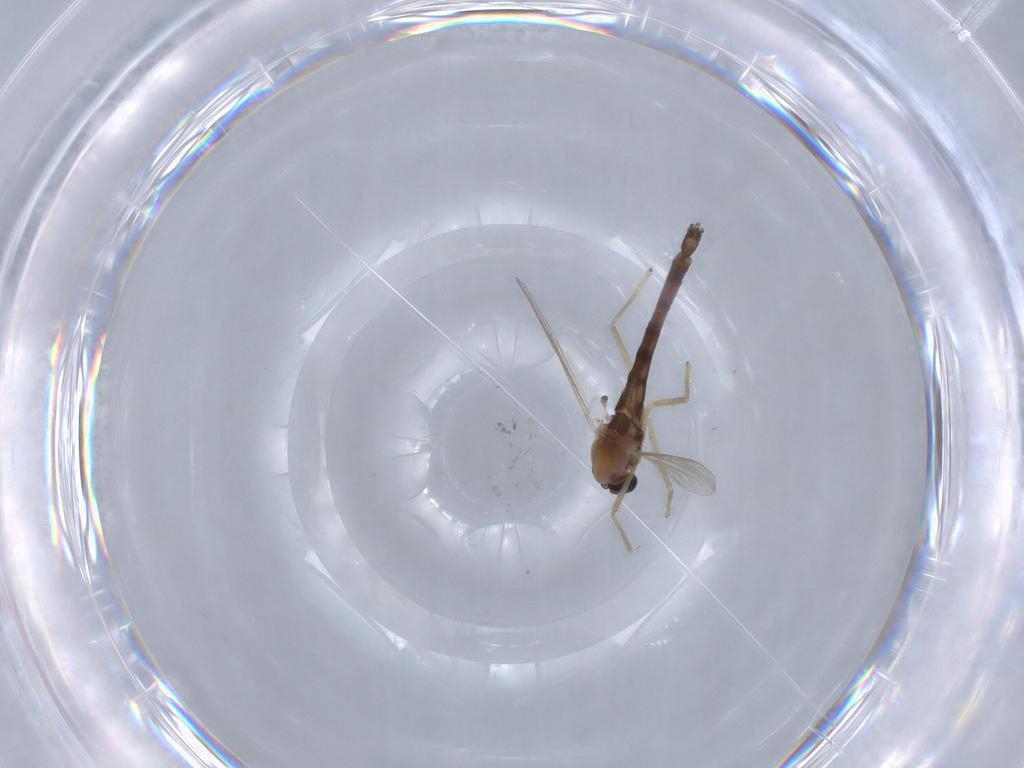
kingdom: Animalia
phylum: Arthropoda
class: Insecta
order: Diptera
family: Chironomidae
